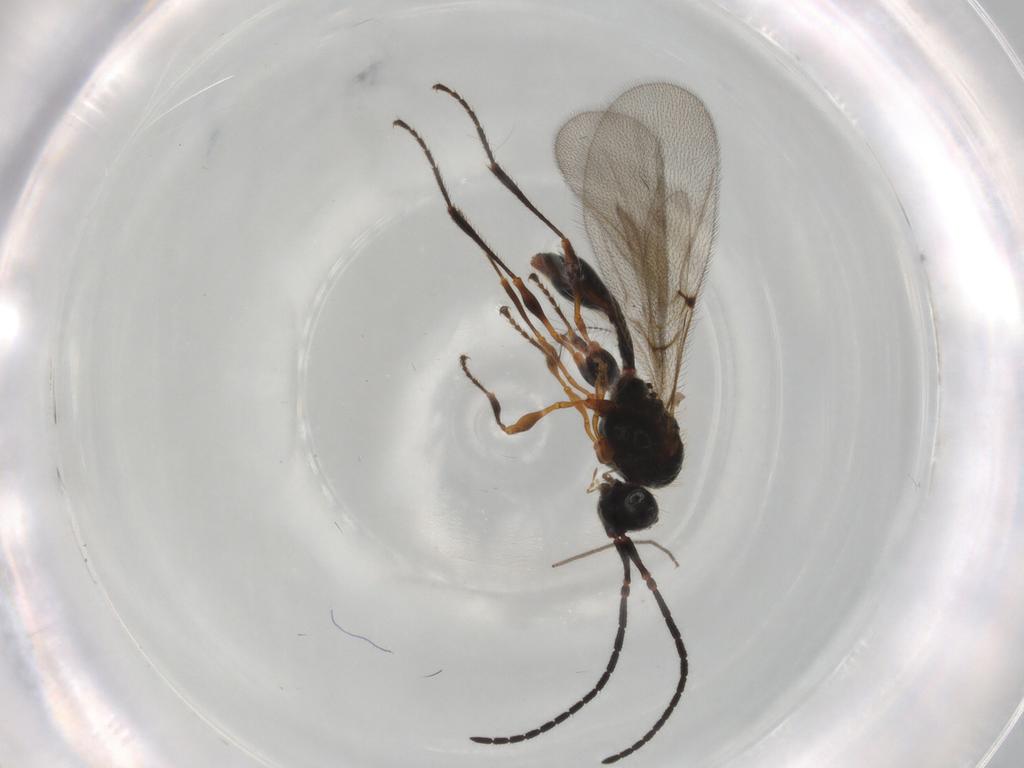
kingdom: Animalia
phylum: Arthropoda
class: Insecta
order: Hymenoptera
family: Diapriidae
